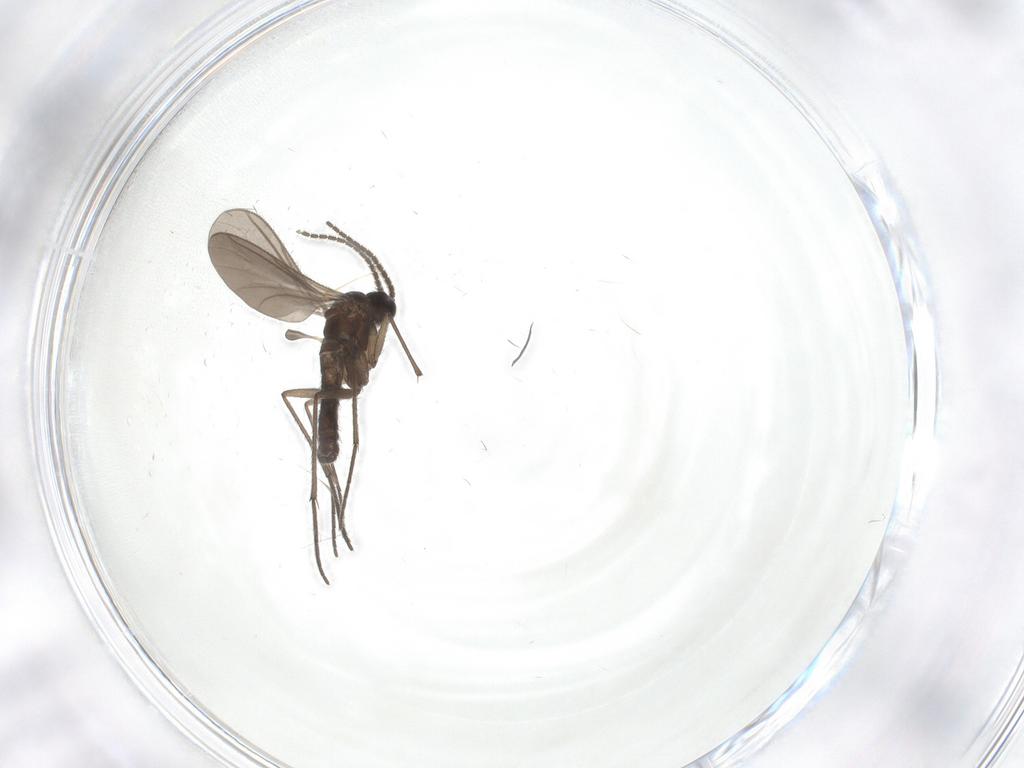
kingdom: Animalia
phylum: Arthropoda
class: Insecta
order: Diptera
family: Sciaridae
